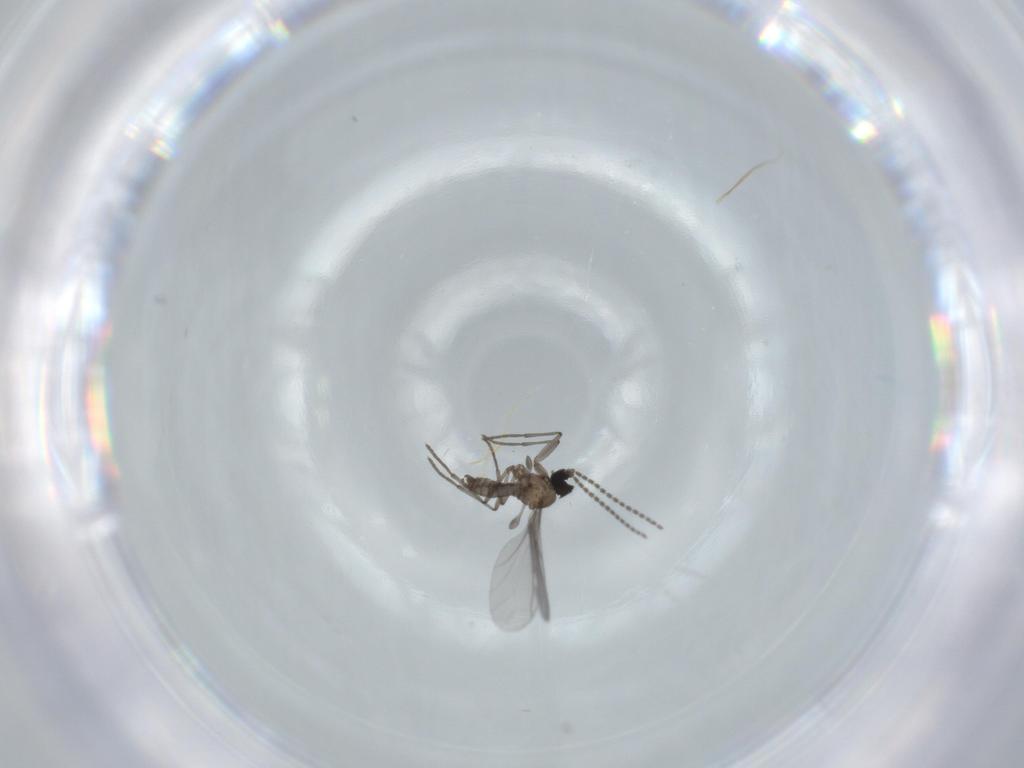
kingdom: Animalia
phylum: Arthropoda
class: Insecta
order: Diptera
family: Sciaridae
